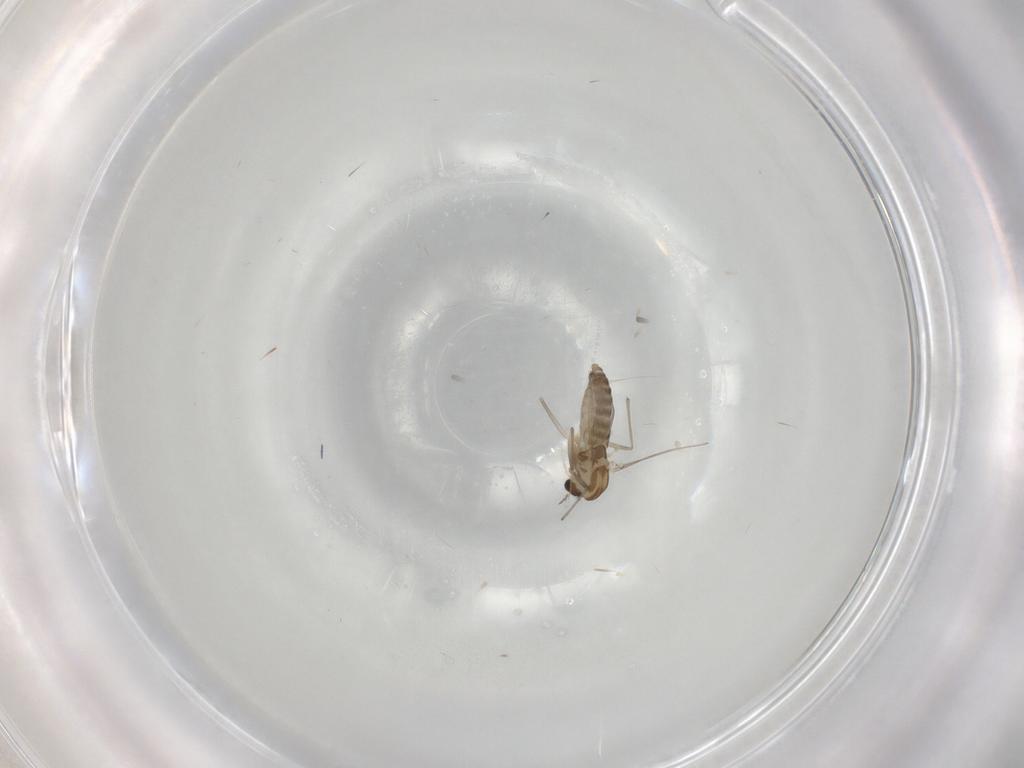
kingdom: Animalia
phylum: Arthropoda
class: Insecta
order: Diptera
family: Chironomidae
